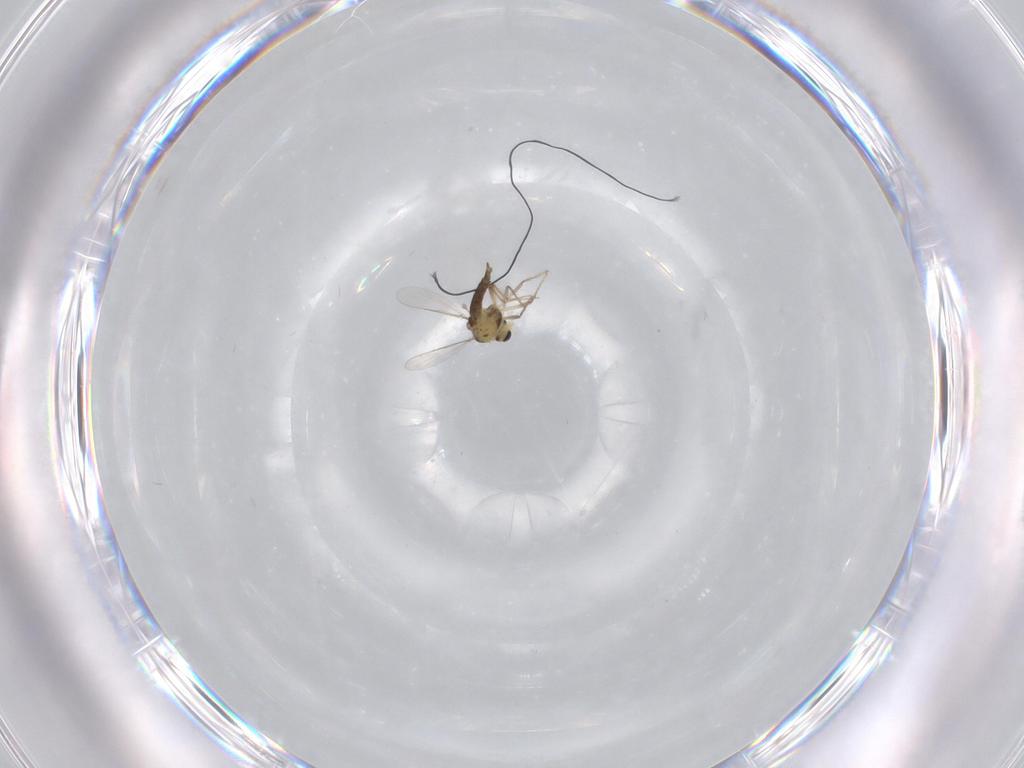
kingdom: Animalia
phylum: Arthropoda
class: Insecta
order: Diptera
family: Chironomidae
